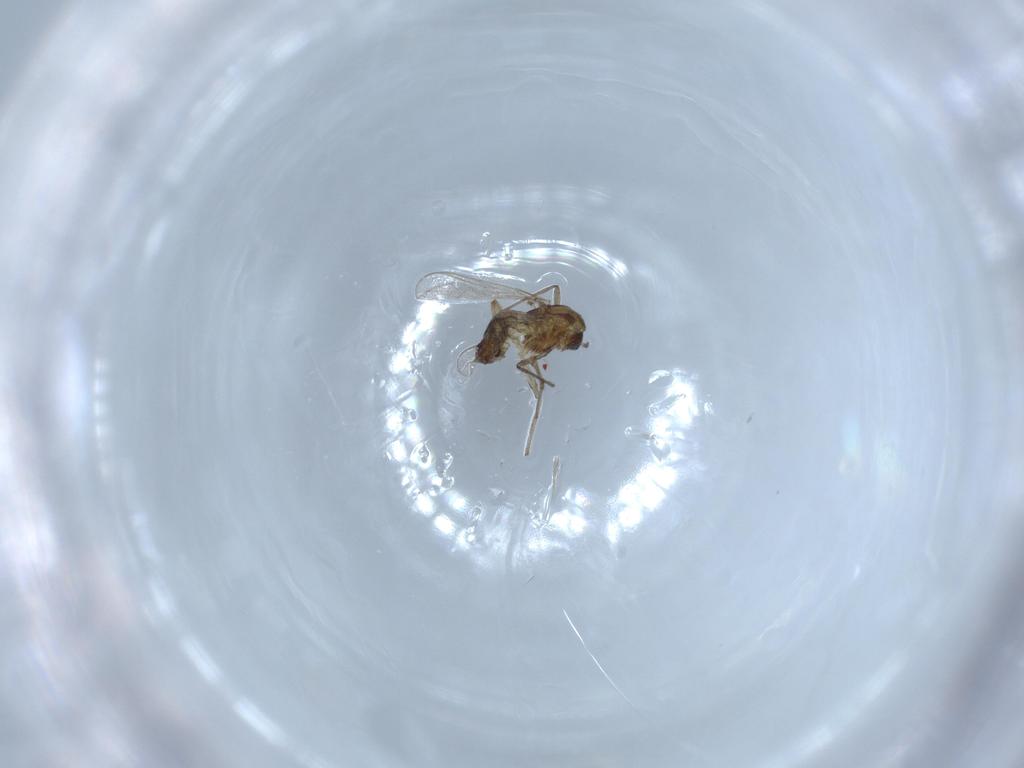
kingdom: Animalia
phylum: Arthropoda
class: Insecta
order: Diptera
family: Chironomidae
